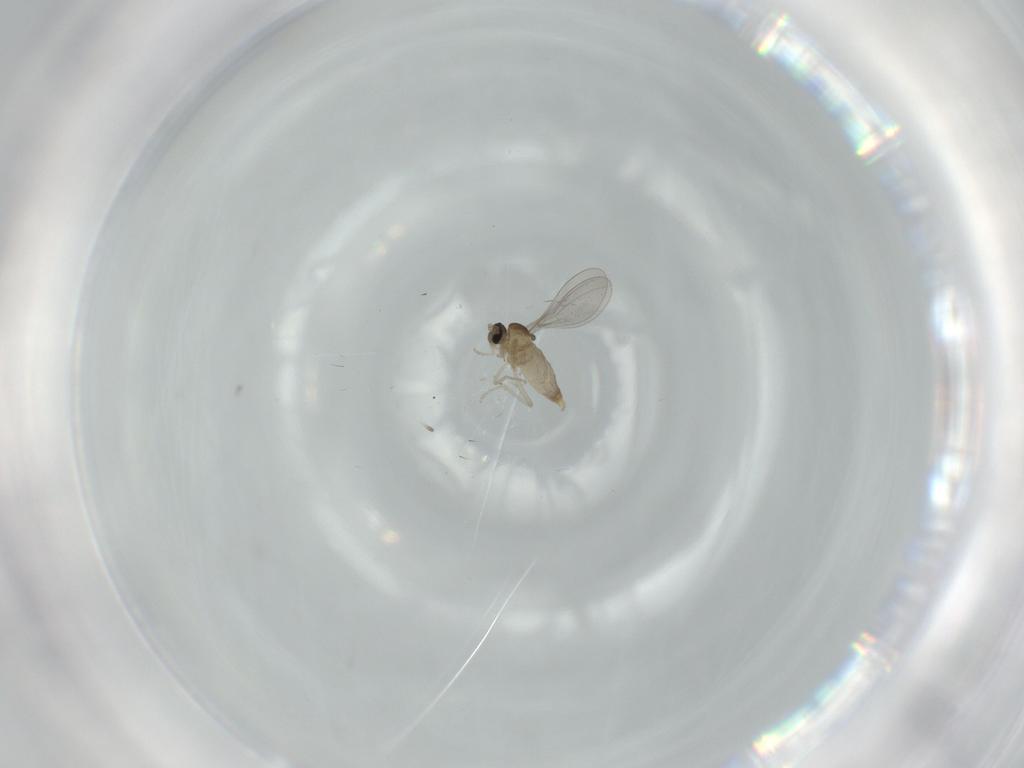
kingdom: Animalia
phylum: Arthropoda
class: Insecta
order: Diptera
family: Cecidomyiidae
